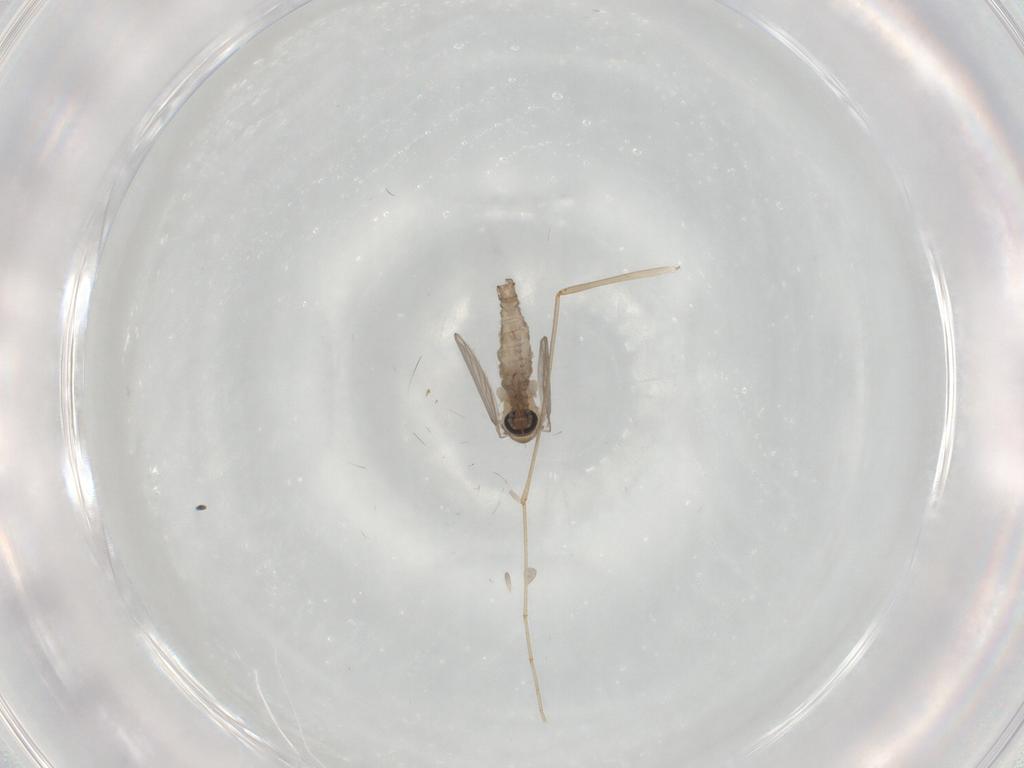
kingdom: Animalia
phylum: Arthropoda
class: Insecta
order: Diptera
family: Psychodidae
